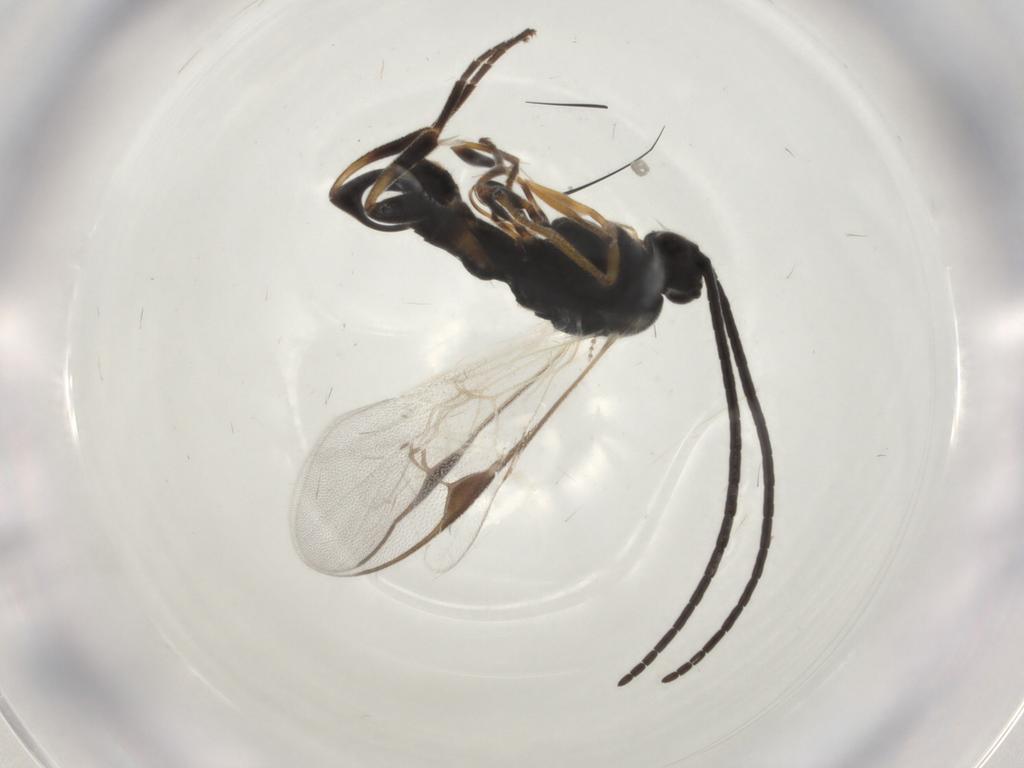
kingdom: Animalia
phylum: Arthropoda
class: Insecta
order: Hymenoptera
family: Braconidae
